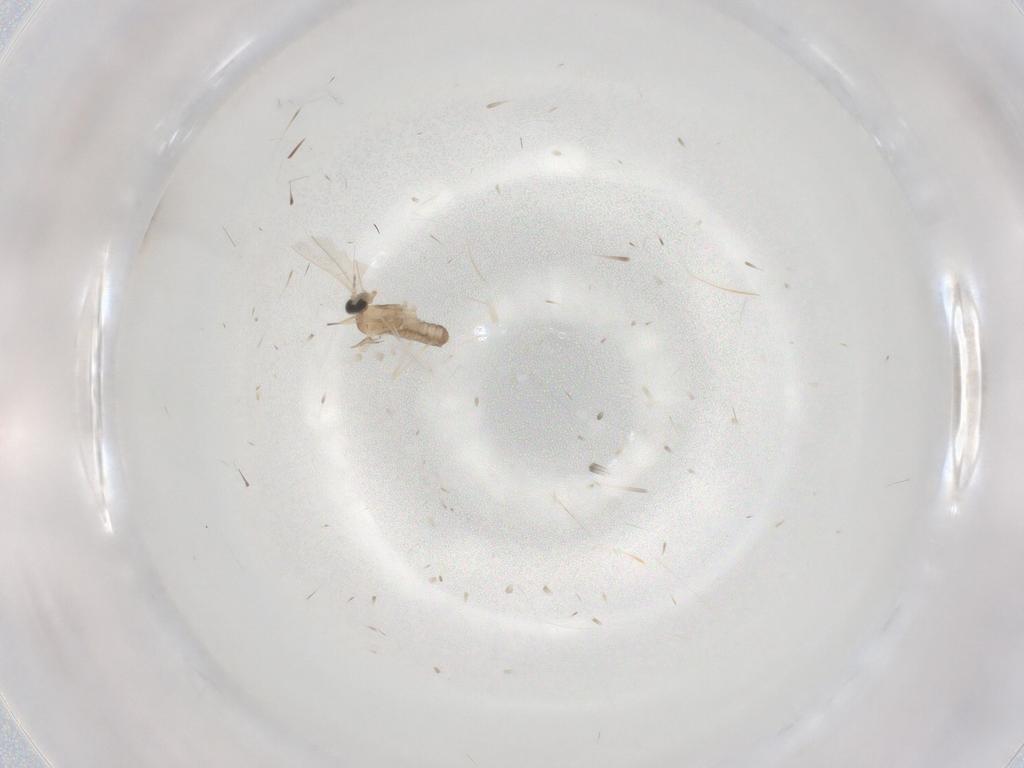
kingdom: Animalia
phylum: Arthropoda
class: Insecta
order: Diptera
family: Cecidomyiidae
